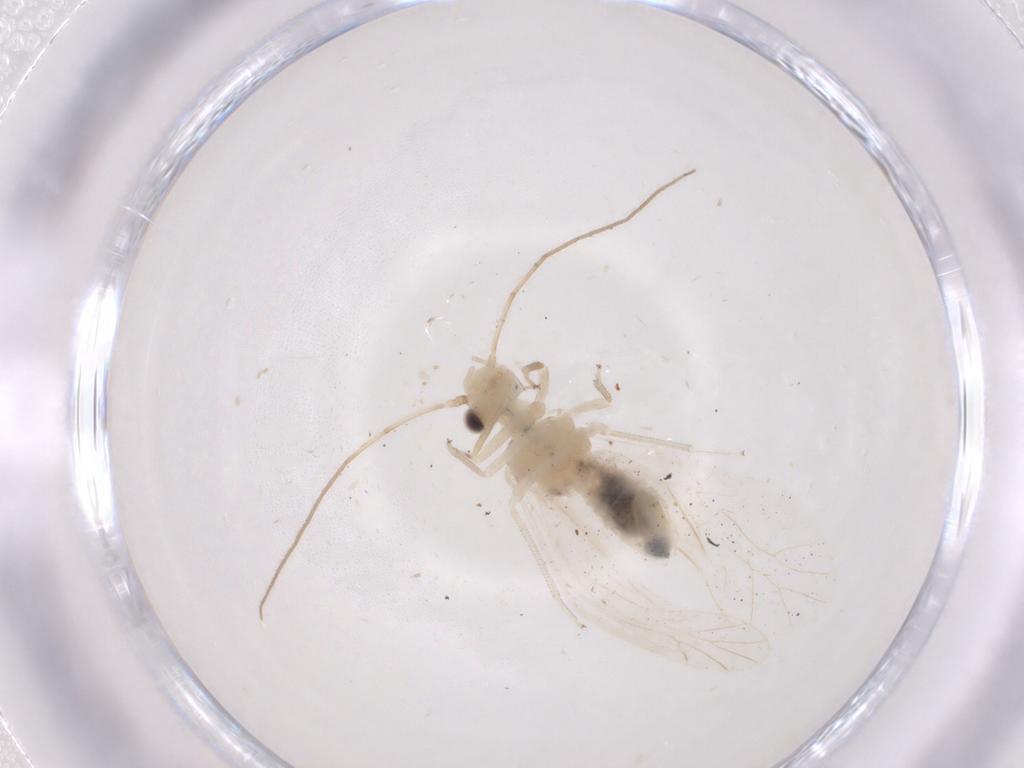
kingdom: Animalia
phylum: Arthropoda
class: Insecta
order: Psocodea
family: Caeciliusidae
